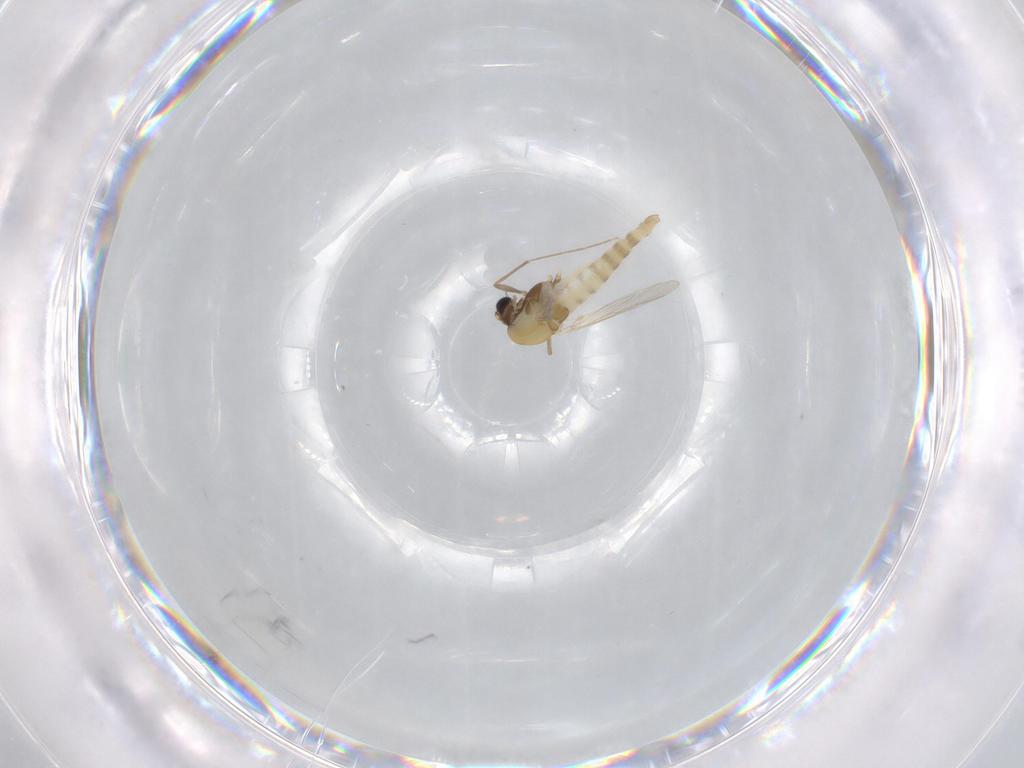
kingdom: Animalia
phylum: Arthropoda
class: Insecta
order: Diptera
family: Chironomidae
